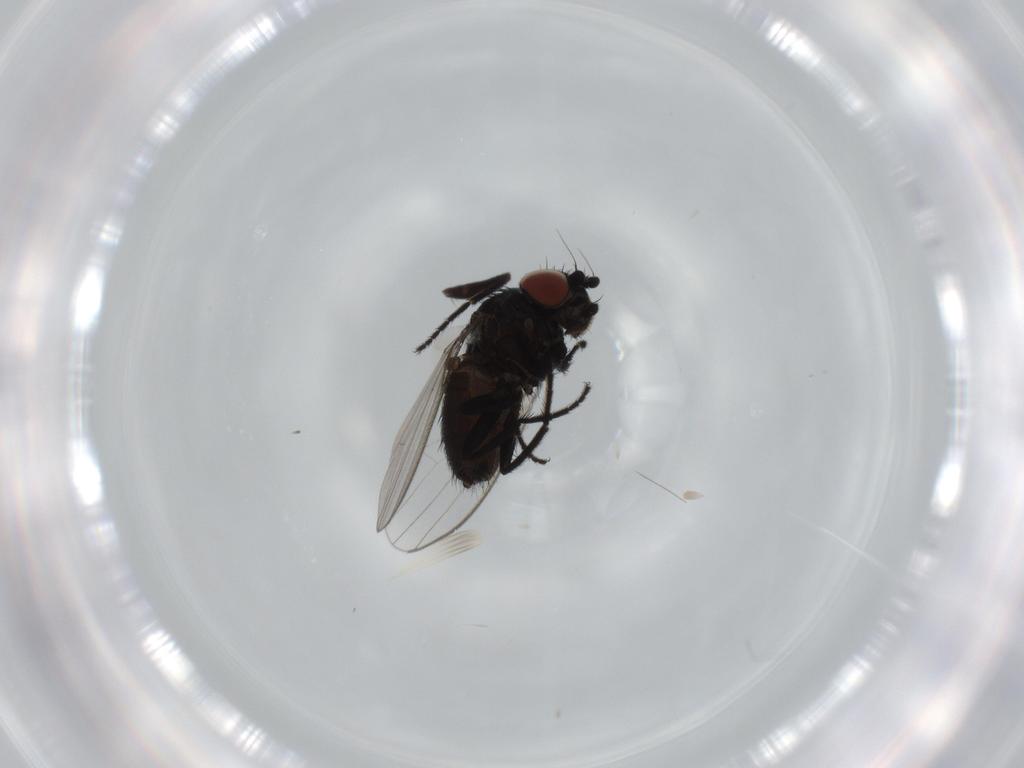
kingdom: Animalia
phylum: Arthropoda
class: Insecta
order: Diptera
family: Milichiidae
